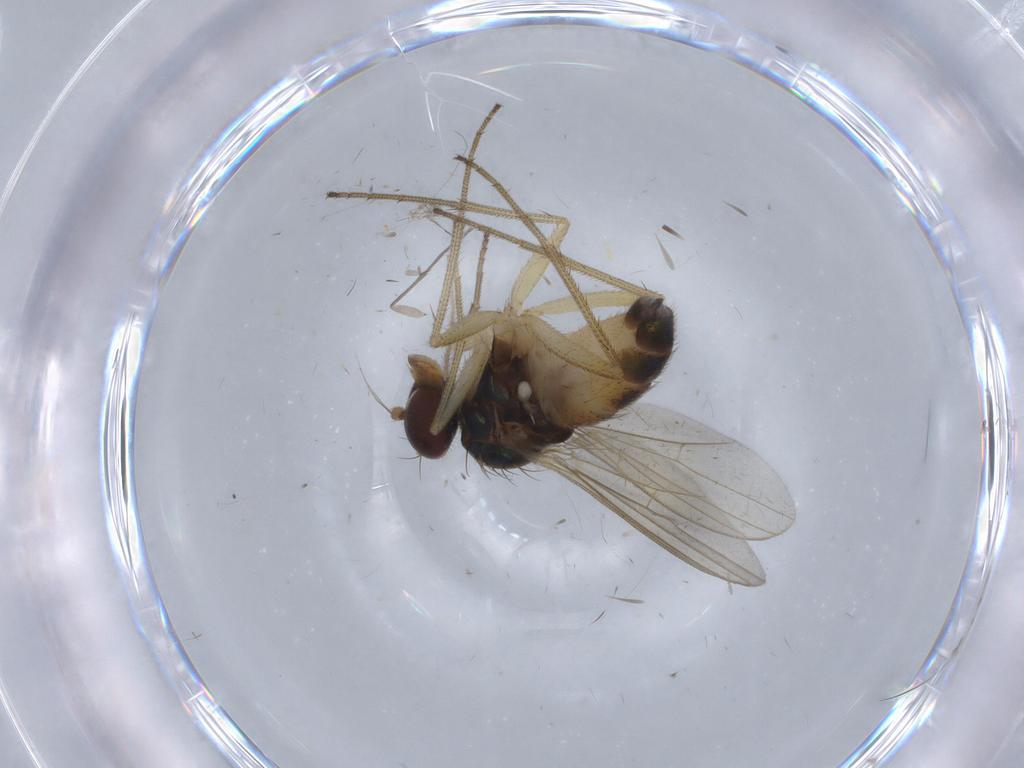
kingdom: Animalia
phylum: Arthropoda
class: Insecta
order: Diptera
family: Dolichopodidae
